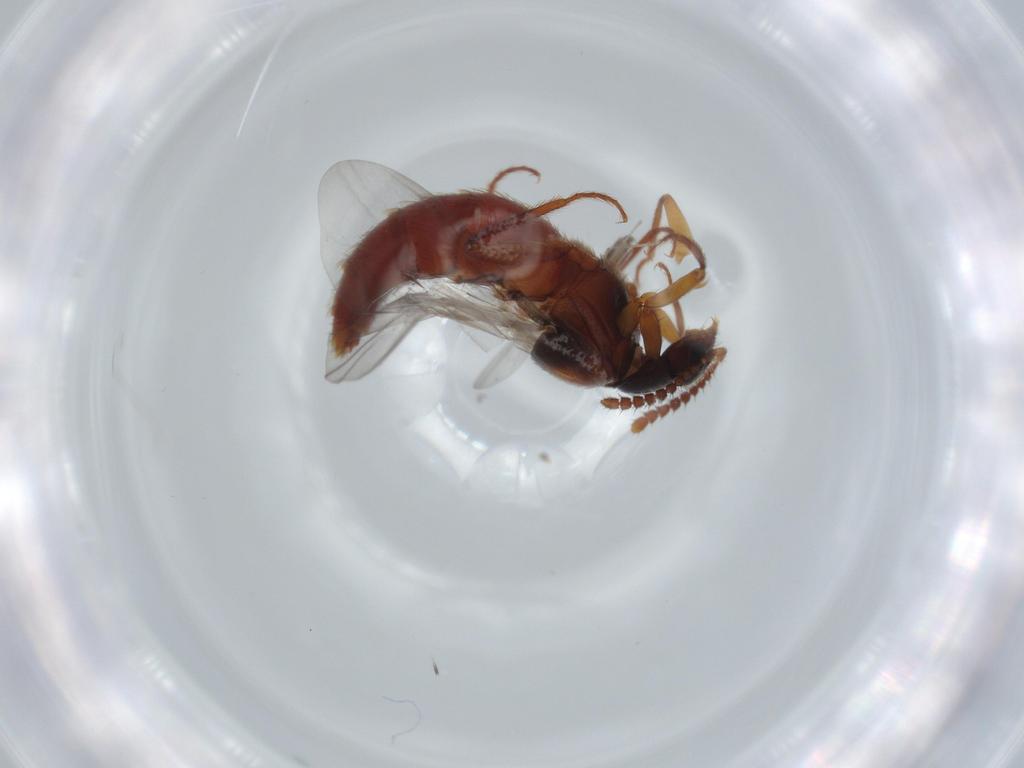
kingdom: Animalia
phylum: Arthropoda
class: Insecta
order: Coleoptera
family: Staphylinidae
